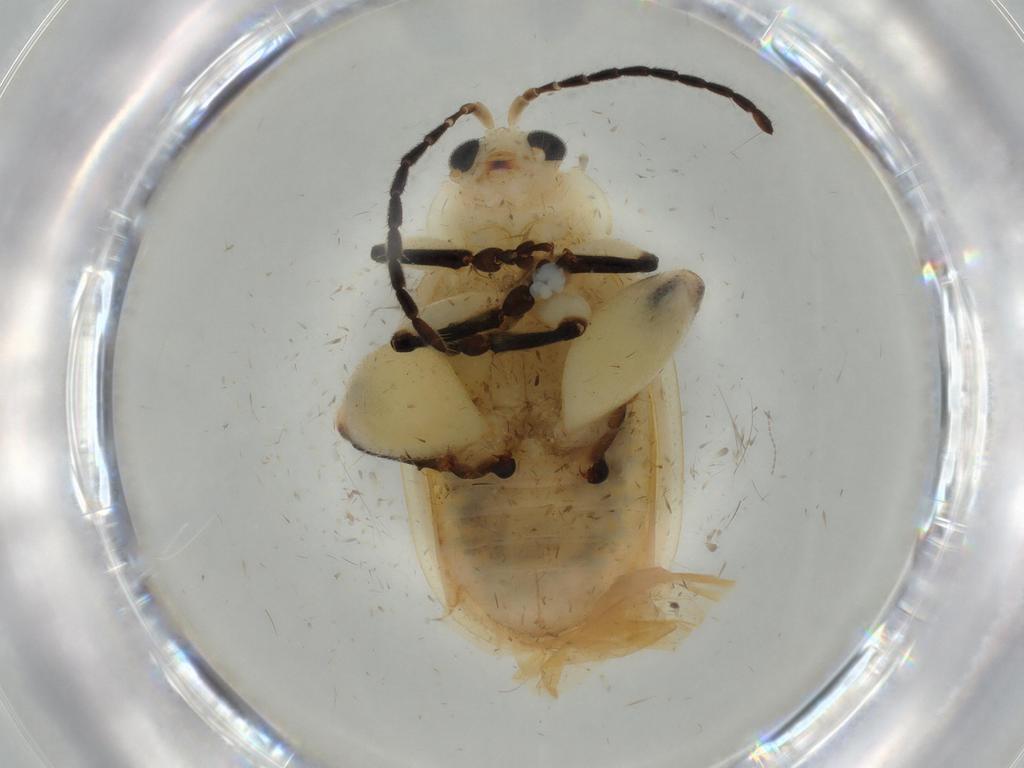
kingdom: Animalia
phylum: Arthropoda
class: Insecta
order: Coleoptera
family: Chrysomelidae
